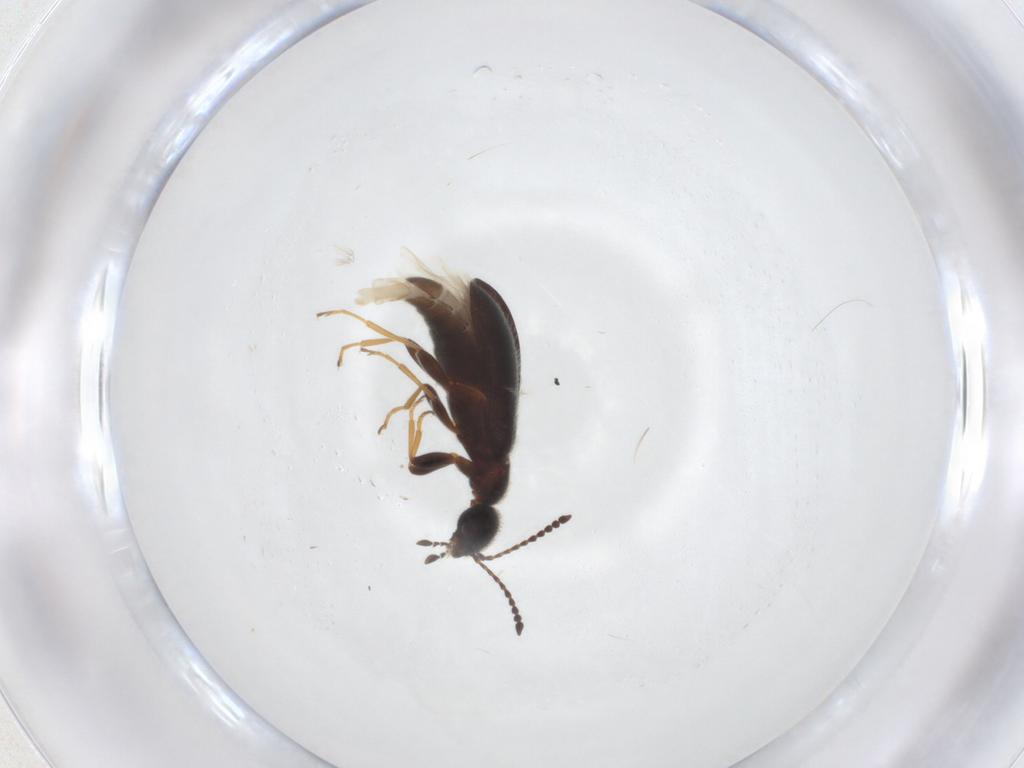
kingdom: Animalia
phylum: Arthropoda
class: Insecta
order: Coleoptera
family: Anthicidae
